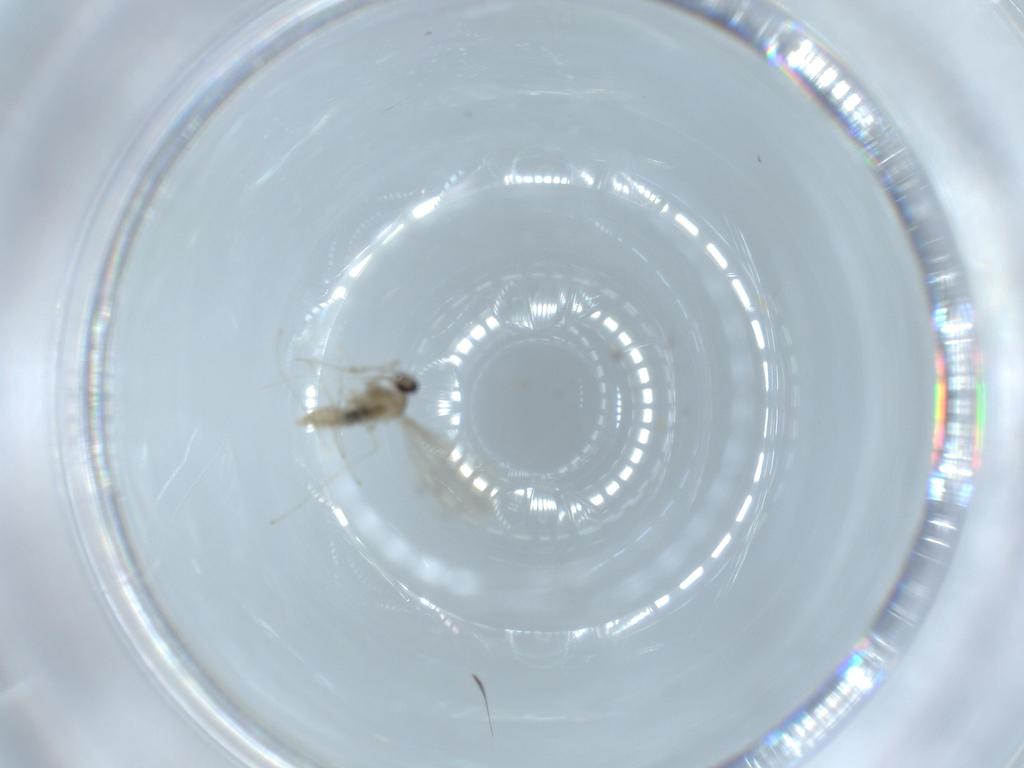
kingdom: Animalia
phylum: Arthropoda
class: Insecta
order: Diptera
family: Cecidomyiidae
